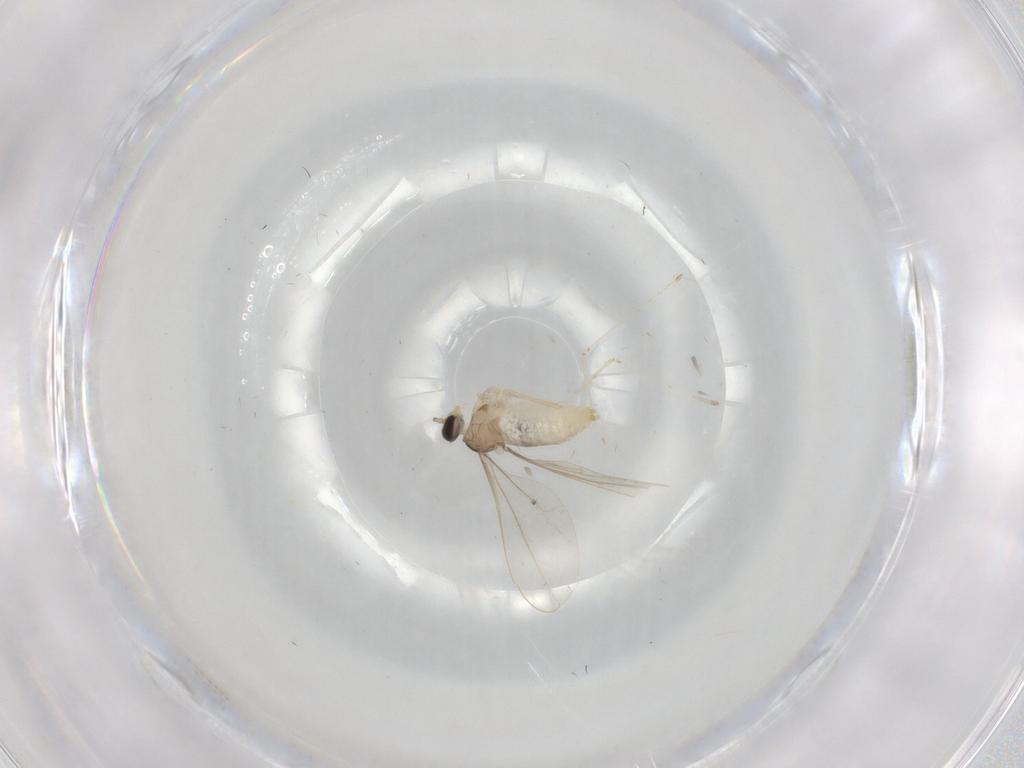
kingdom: Animalia
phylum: Arthropoda
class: Insecta
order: Diptera
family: Cecidomyiidae
